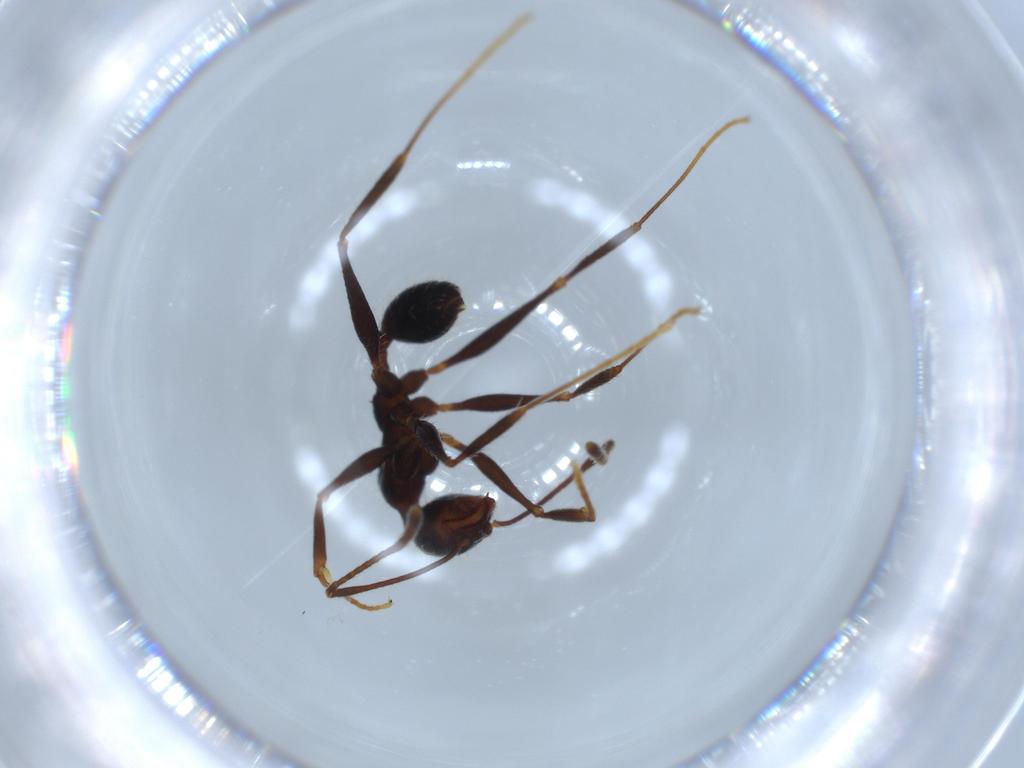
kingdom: Animalia
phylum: Arthropoda
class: Insecta
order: Hymenoptera
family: Formicidae
